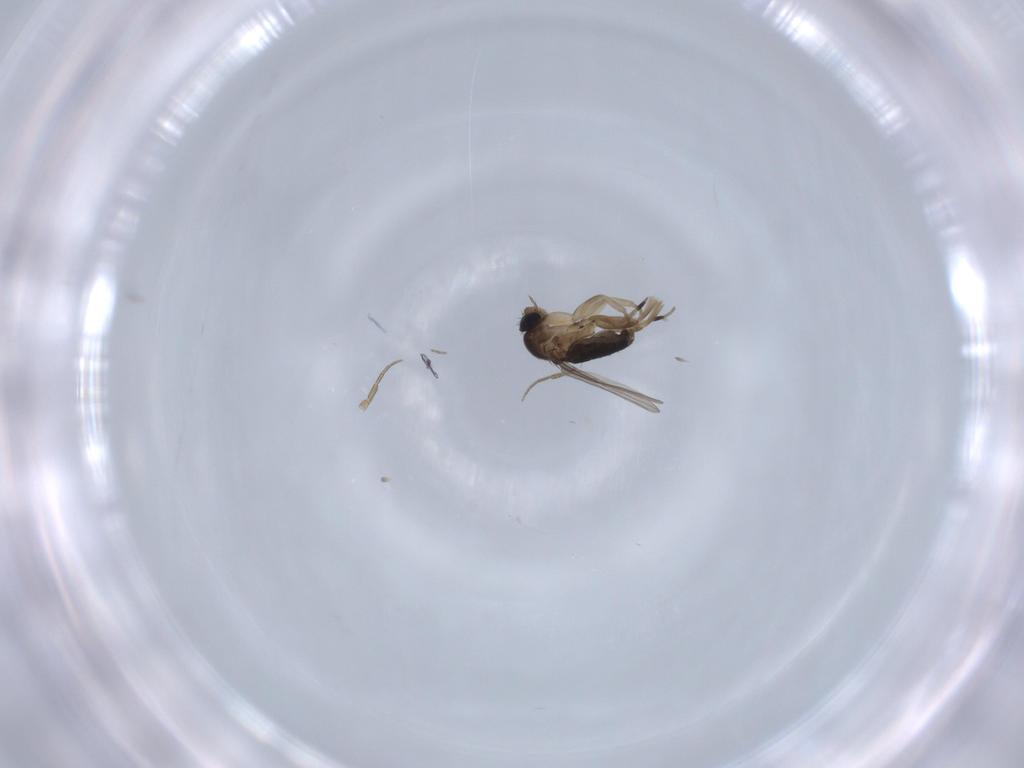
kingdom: Animalia
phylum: Arthropoda
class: Insecta
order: Diptera
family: Phoridae
